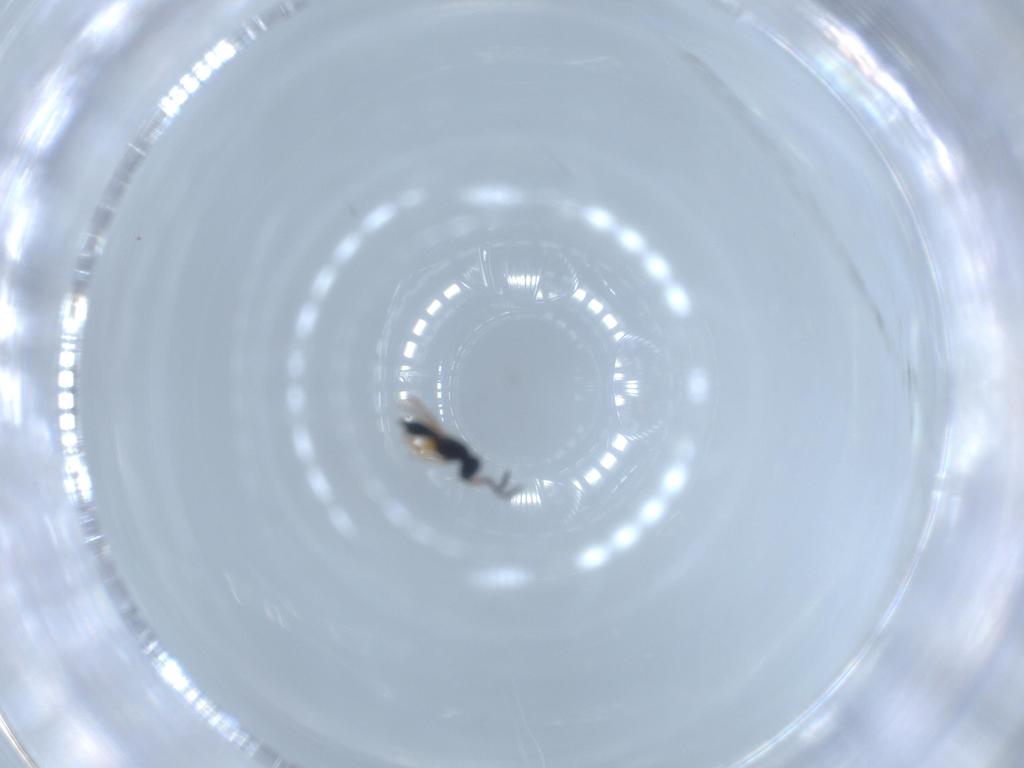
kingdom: Animalia
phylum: Arthropoda
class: Insecta
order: Hymenoptera
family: Scelionidae
